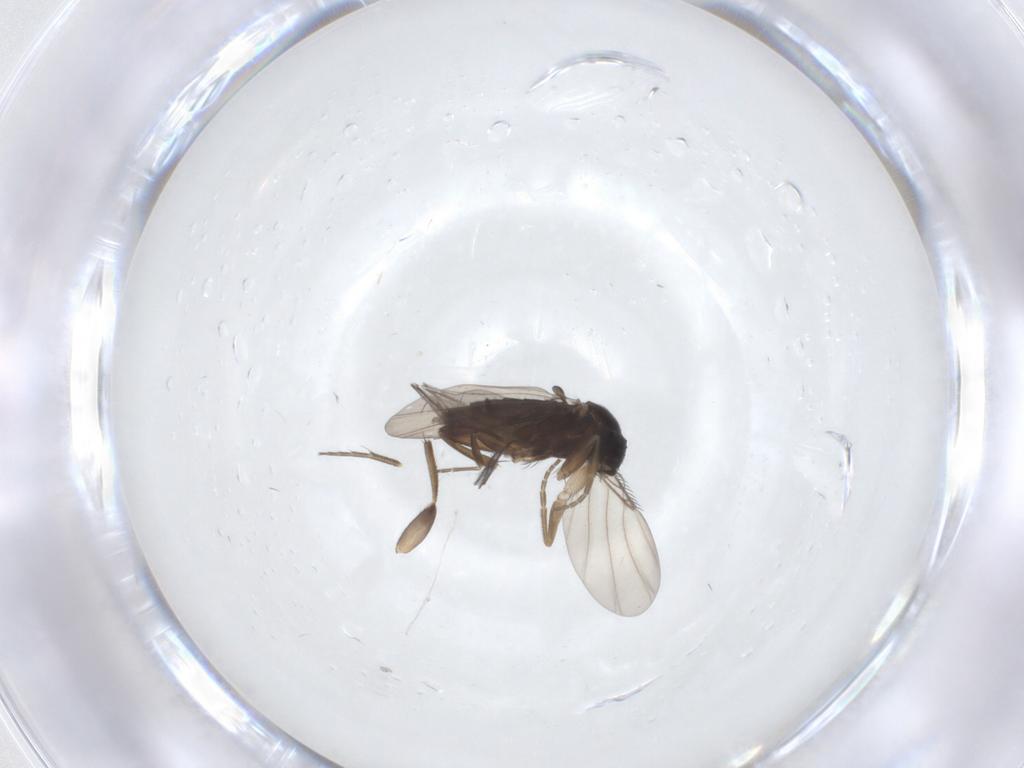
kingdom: Animalia
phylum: Arthropoda
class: Insecta
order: Diptera
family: Phoridae
